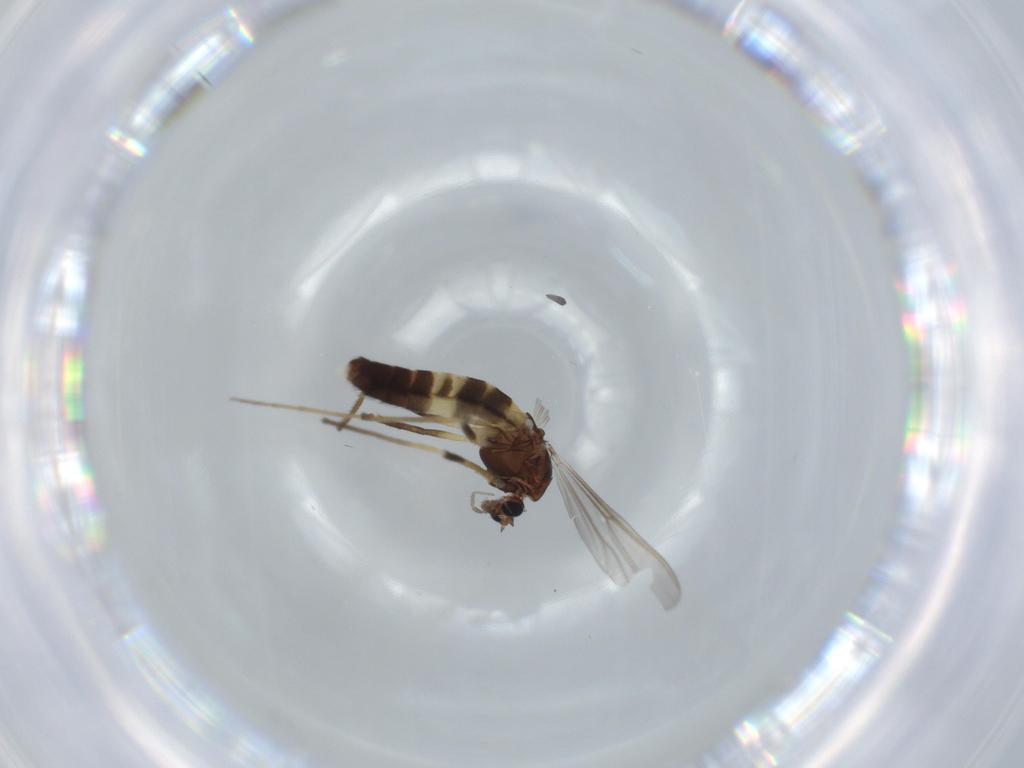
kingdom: Animalia
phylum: Arthropoda
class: Insecta
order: Diptera
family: Chironomidae
